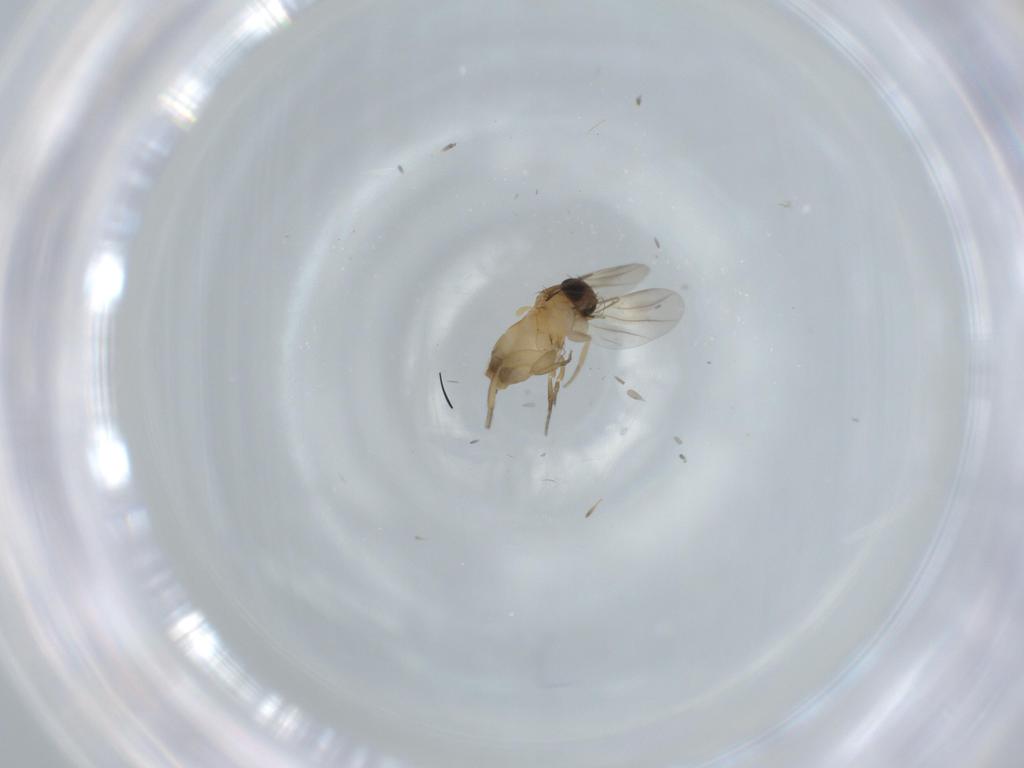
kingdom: Animalia
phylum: Arthropoda
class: Insecta
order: Diptera
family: Phoridae
